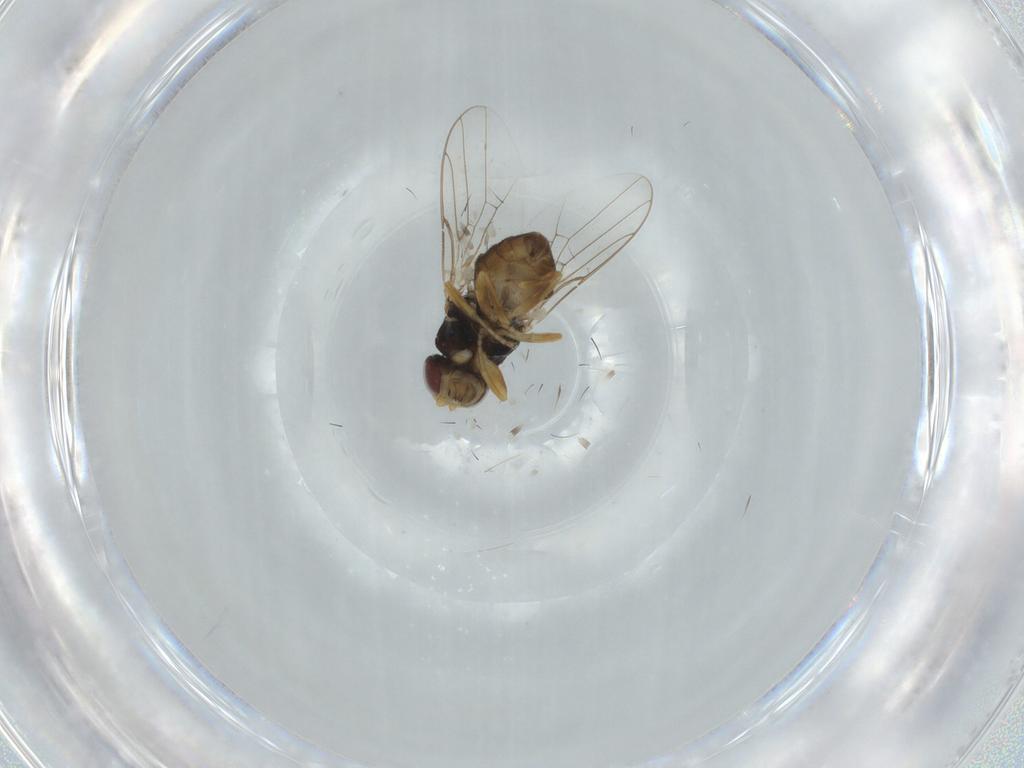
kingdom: Animalia
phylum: Arthropoda
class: Insecta
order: Diptera
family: Chloropidae
